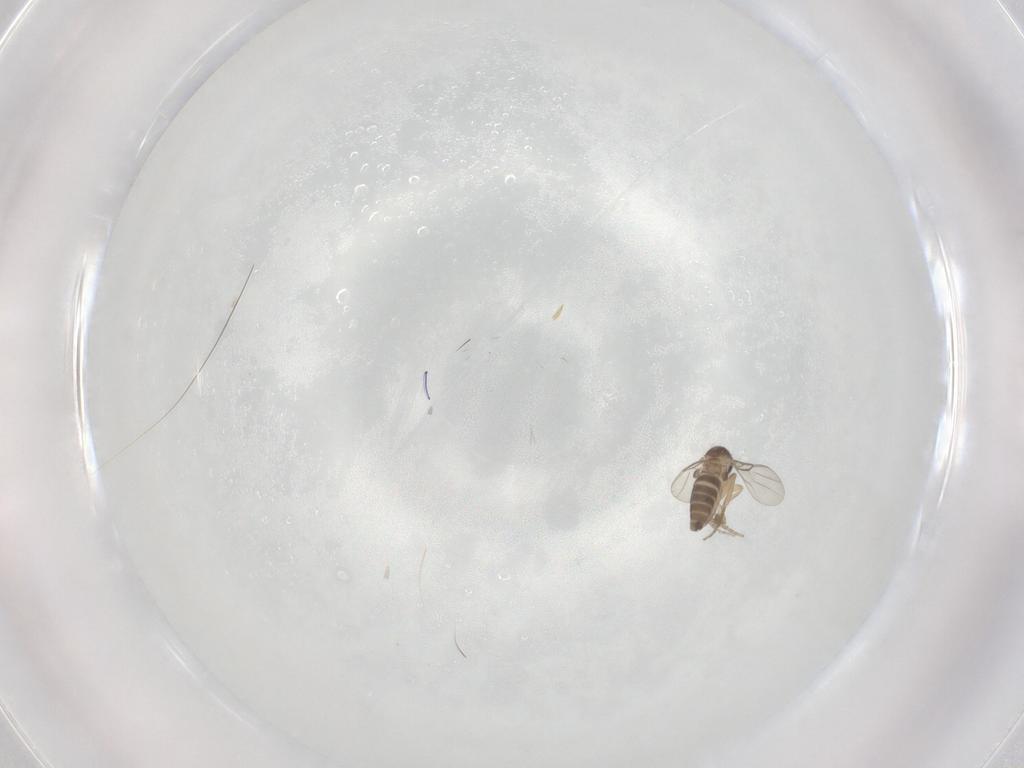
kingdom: Animalia
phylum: Arthropoda
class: Insecta
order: Diptera
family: Phoridae
